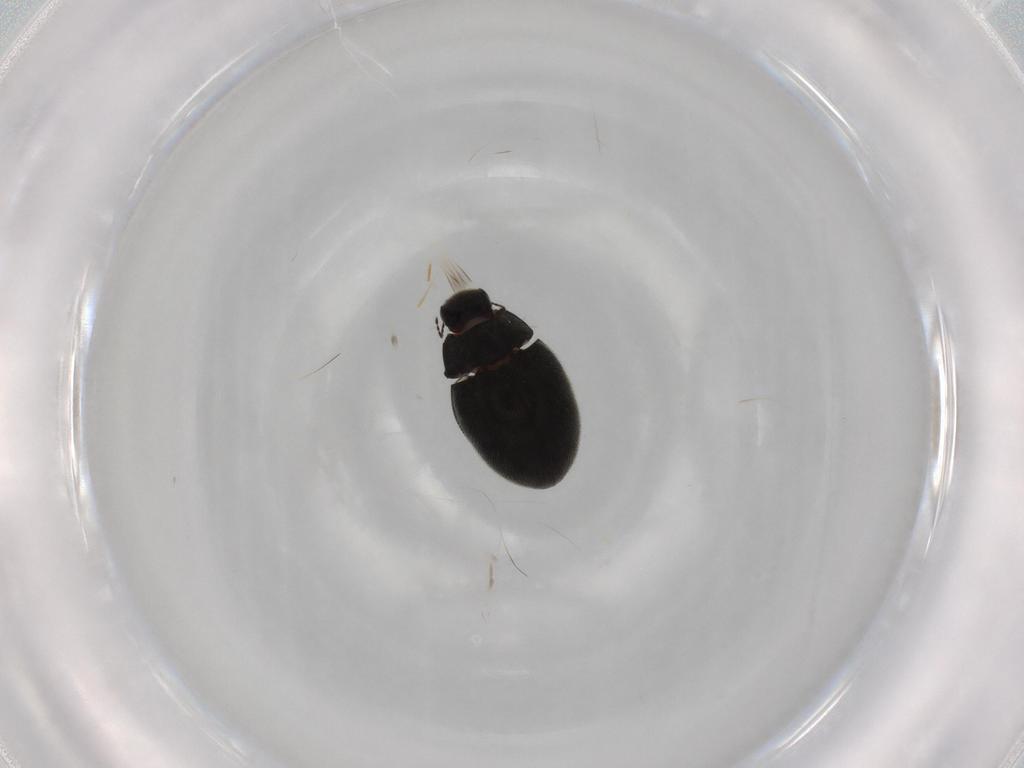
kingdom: Animalia
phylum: Arthropoda
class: Insecta
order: Coleoptera
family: Limnichidae
